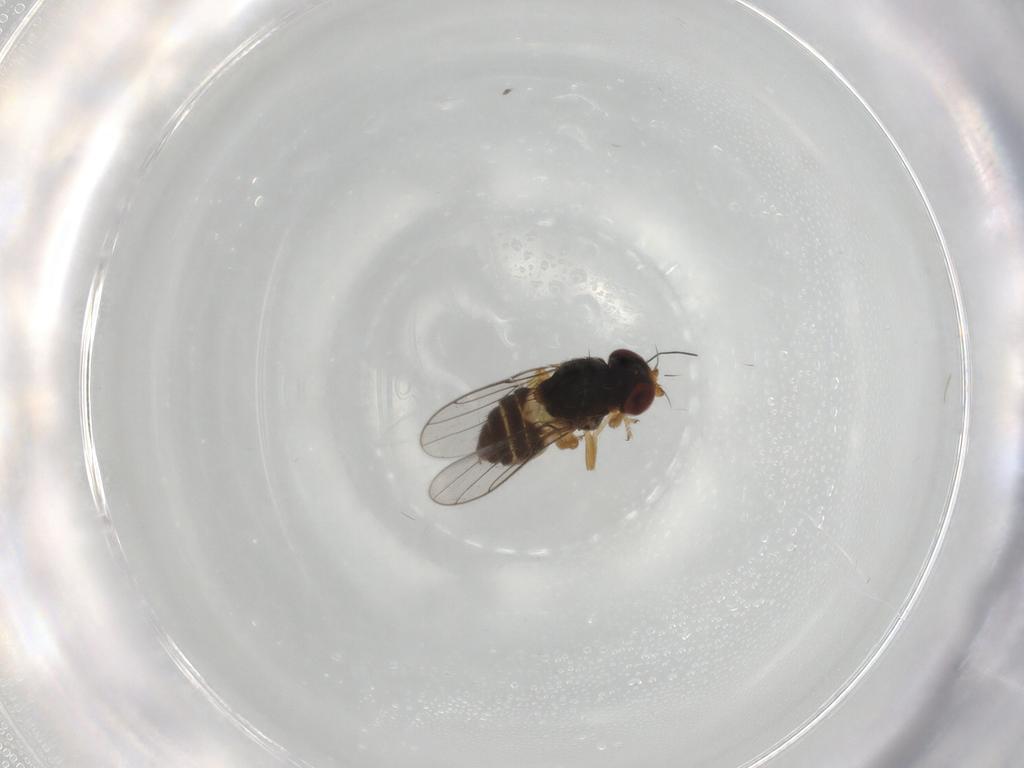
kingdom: Animalia
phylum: Arthropoda
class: Insecta
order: Diptera
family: Chloropidae
